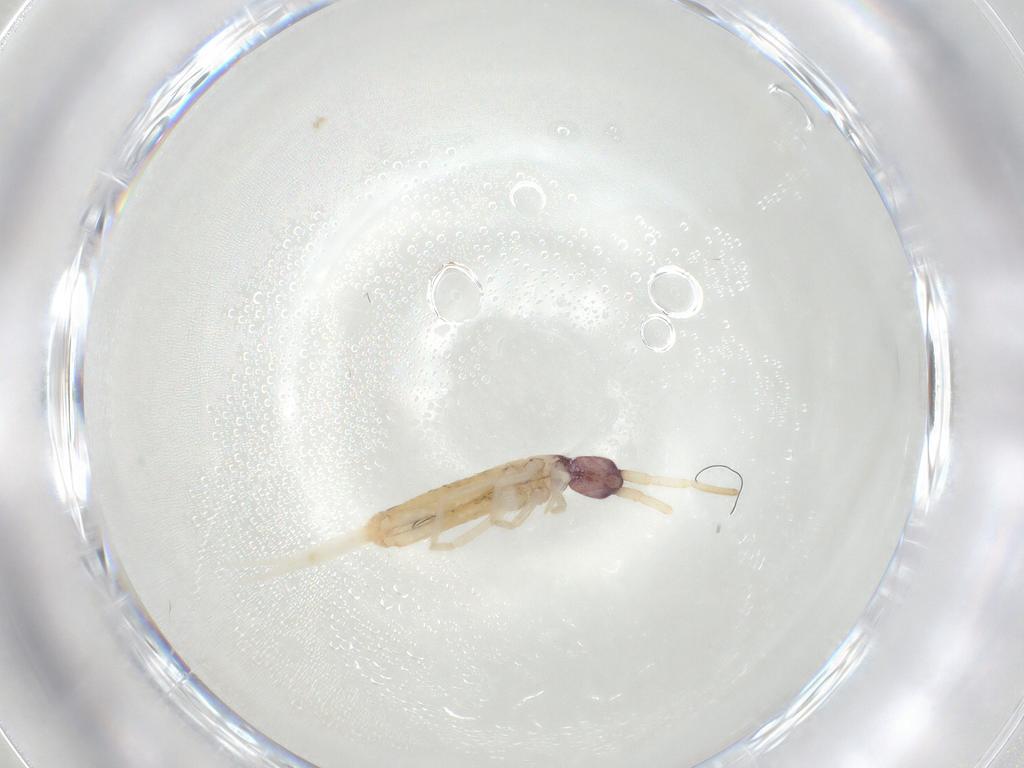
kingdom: Animalia
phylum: Arthropoda
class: Collembola
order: Entomobryomorpha
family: Entomobryidae
